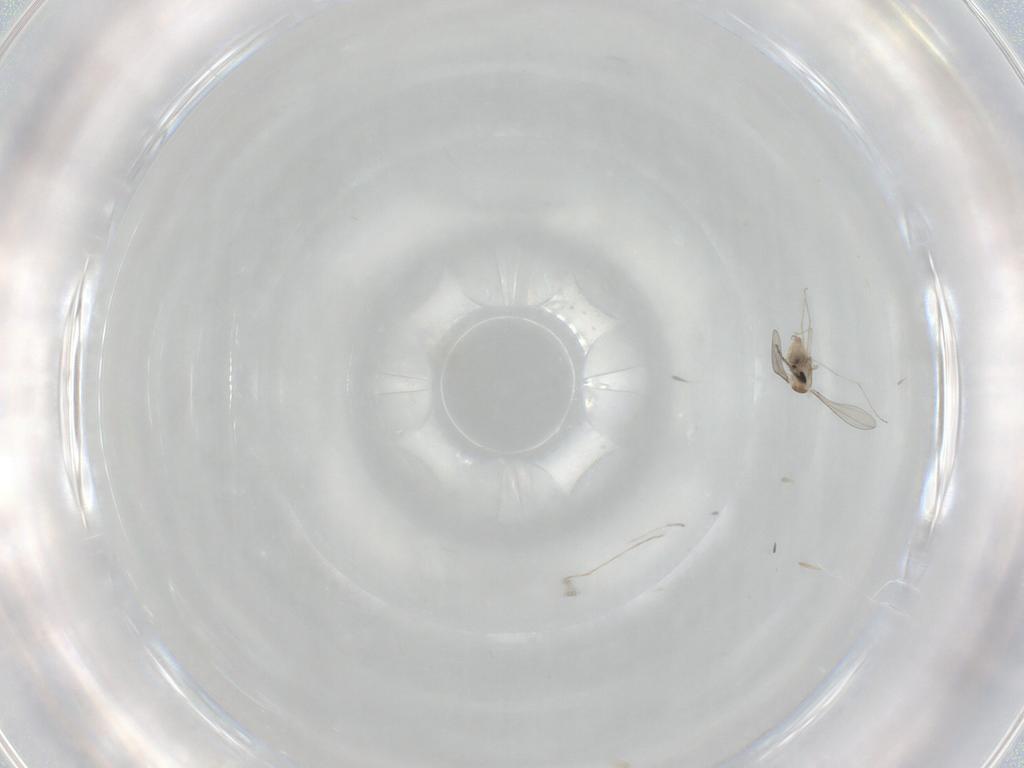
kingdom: Animalia
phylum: Arthropoda
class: Insecta
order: Diptera
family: Cecidomyiidae
